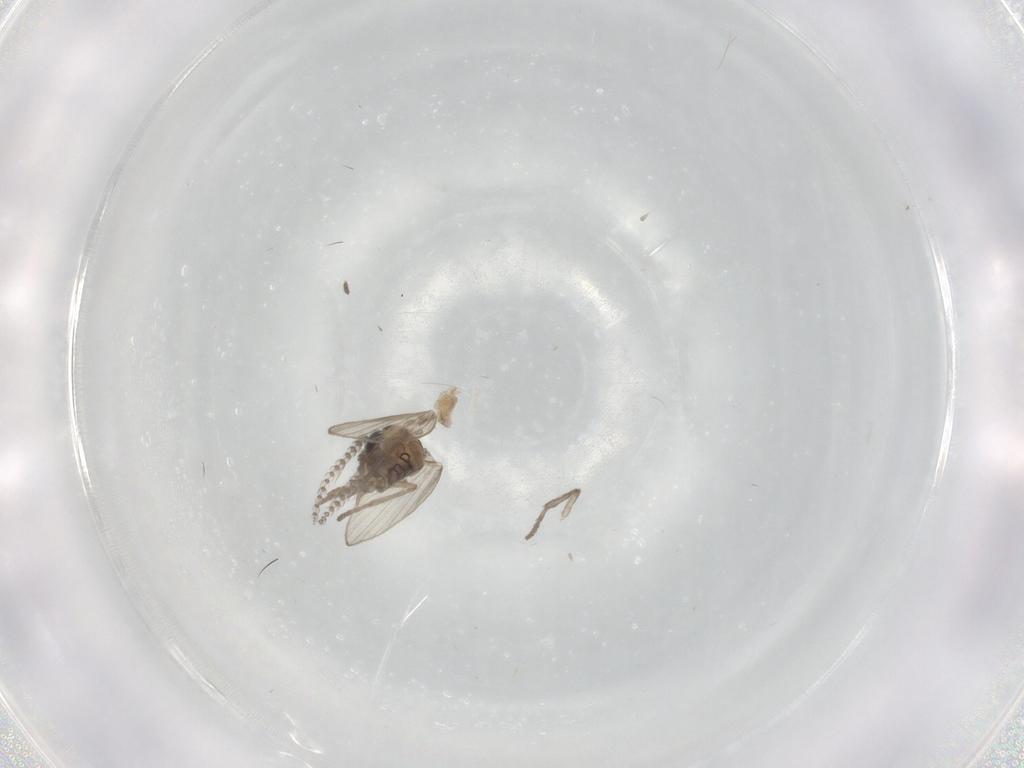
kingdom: Animalia
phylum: Arthropoda
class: Insecta
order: Diptera
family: Psychodidae
